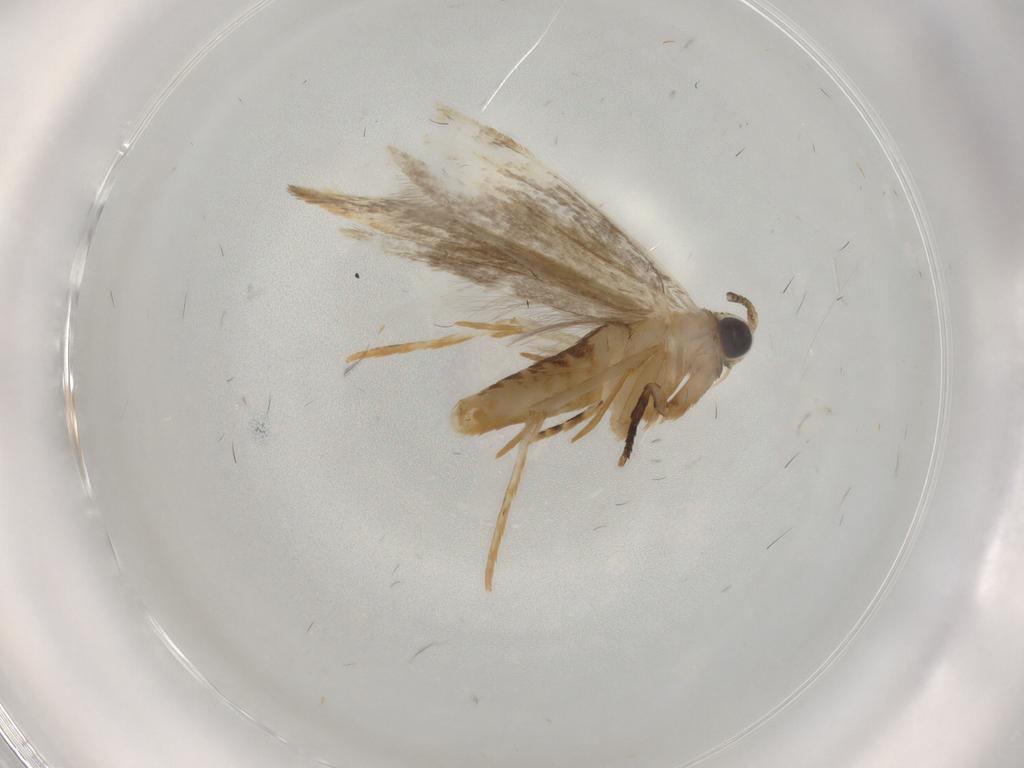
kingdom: Animalia
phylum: Arthropoda
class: Insecta
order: Lepidoptera
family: Tineidae
